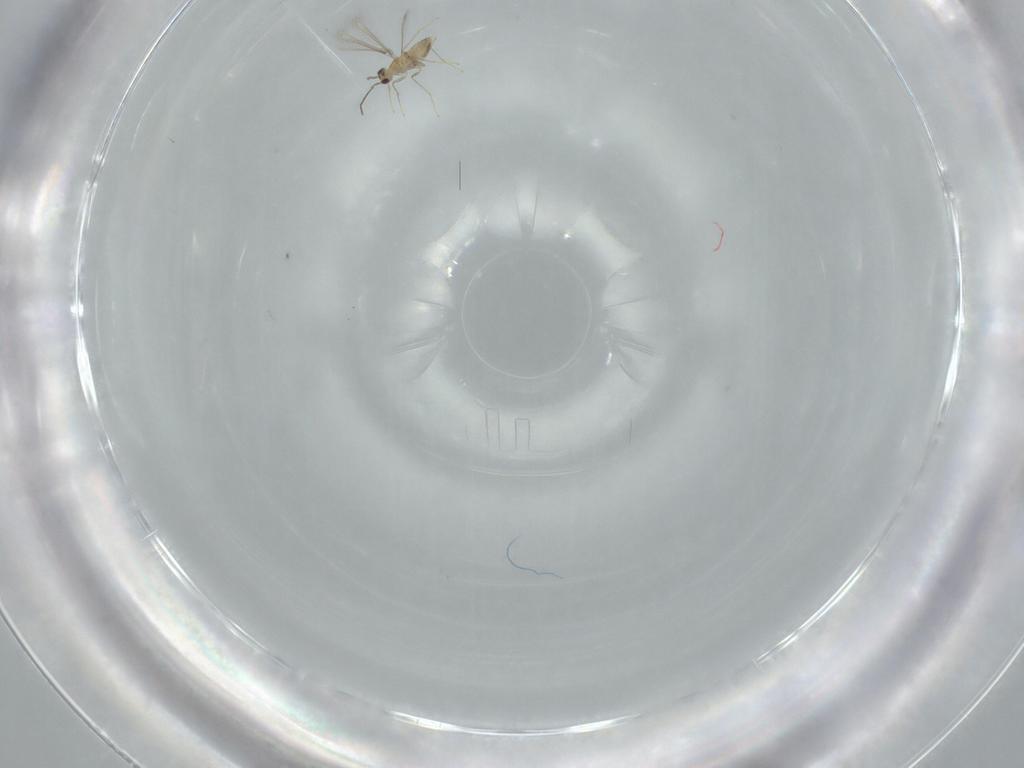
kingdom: Animalia
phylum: Arthropoda
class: Insecta
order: Hymenoptera
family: Mymaridae
